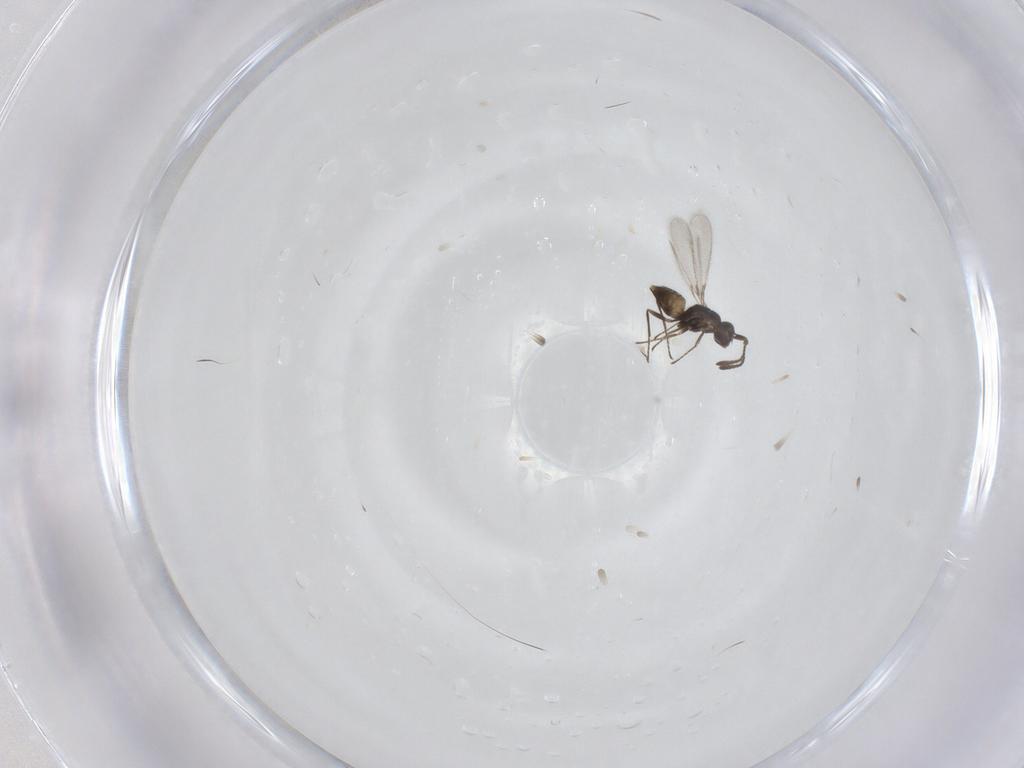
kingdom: Animalia
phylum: Arthropoda
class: Insecta
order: Hymenoptera
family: Mymaridae
